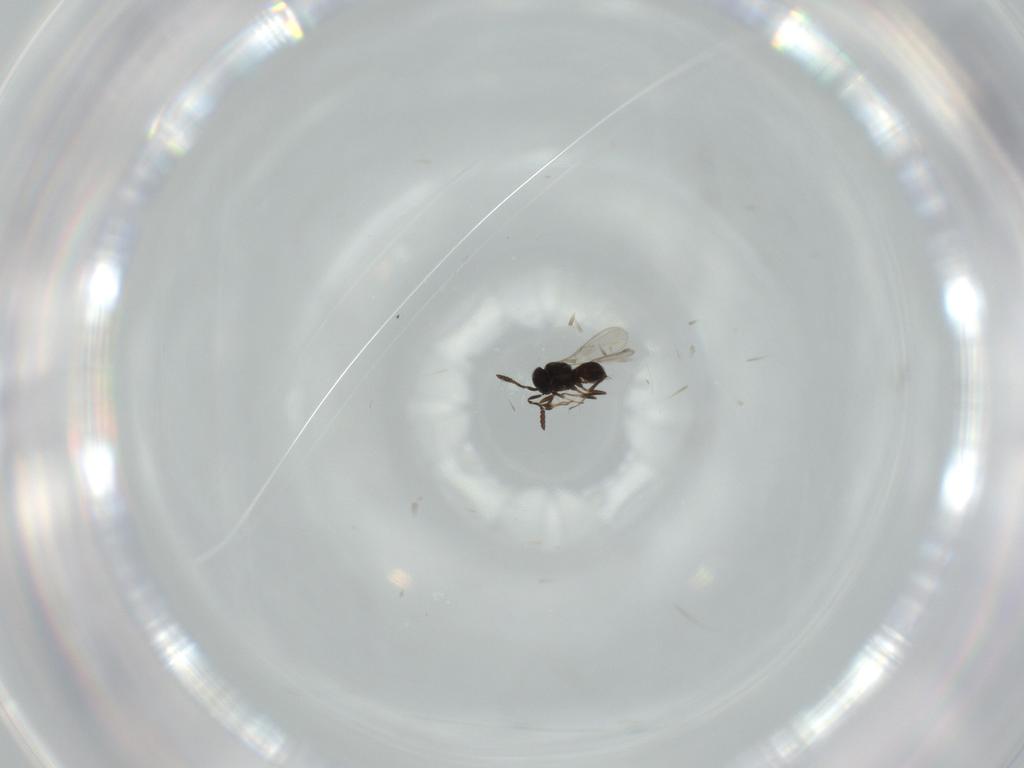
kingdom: Animalia
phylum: Arthropoda
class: Insecta
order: Hymenoptera
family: Scelionidae
